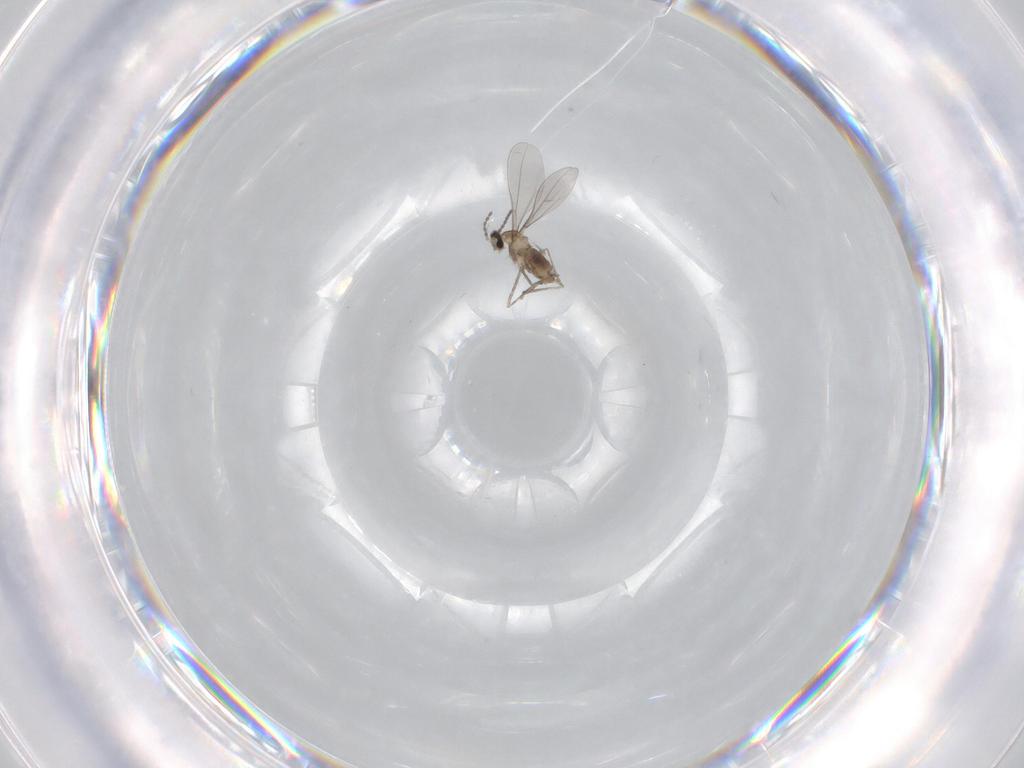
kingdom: Animalia
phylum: Arthropoda
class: Insecta
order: Diptera
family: Cecidomyiidae
